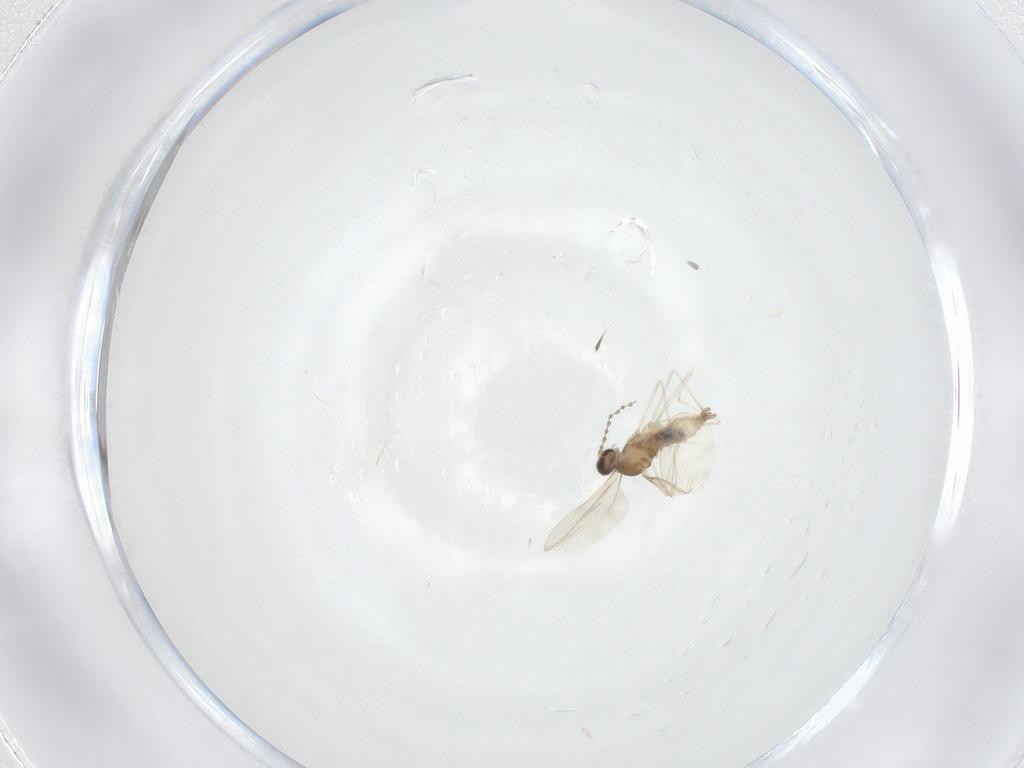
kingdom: Animalia
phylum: Arthropoda
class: Insecta
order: Diptera
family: Cecidomyiidae
